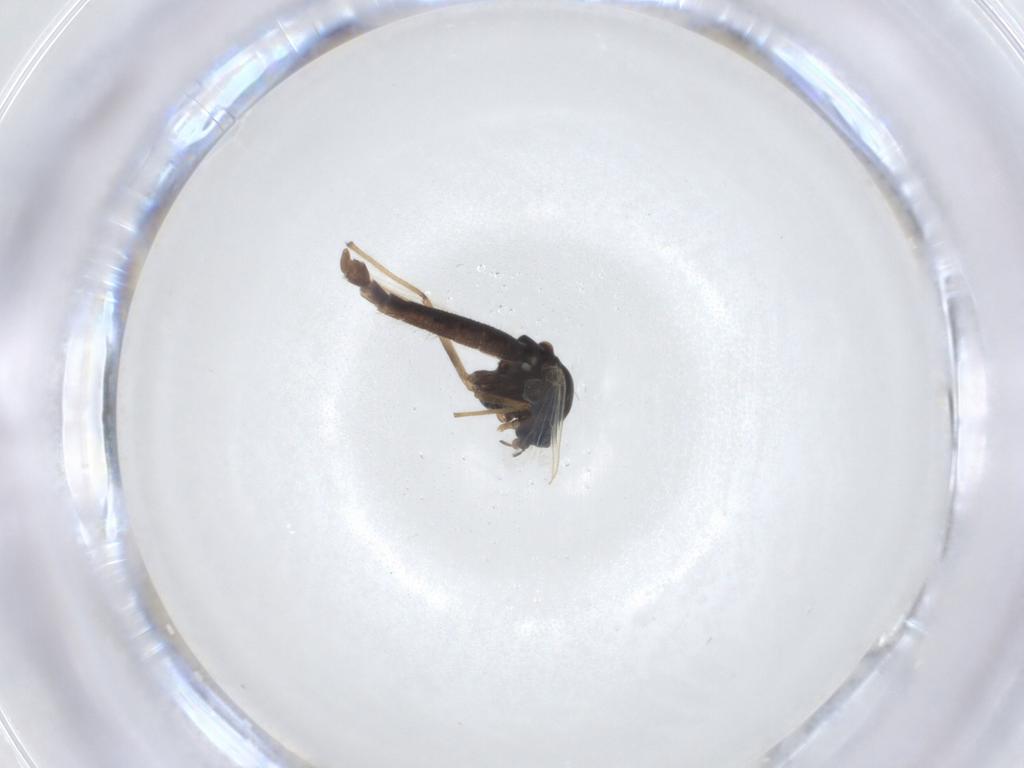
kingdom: Animalia
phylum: Arthropoda
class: Insecta
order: Diptera
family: Chironomidae
